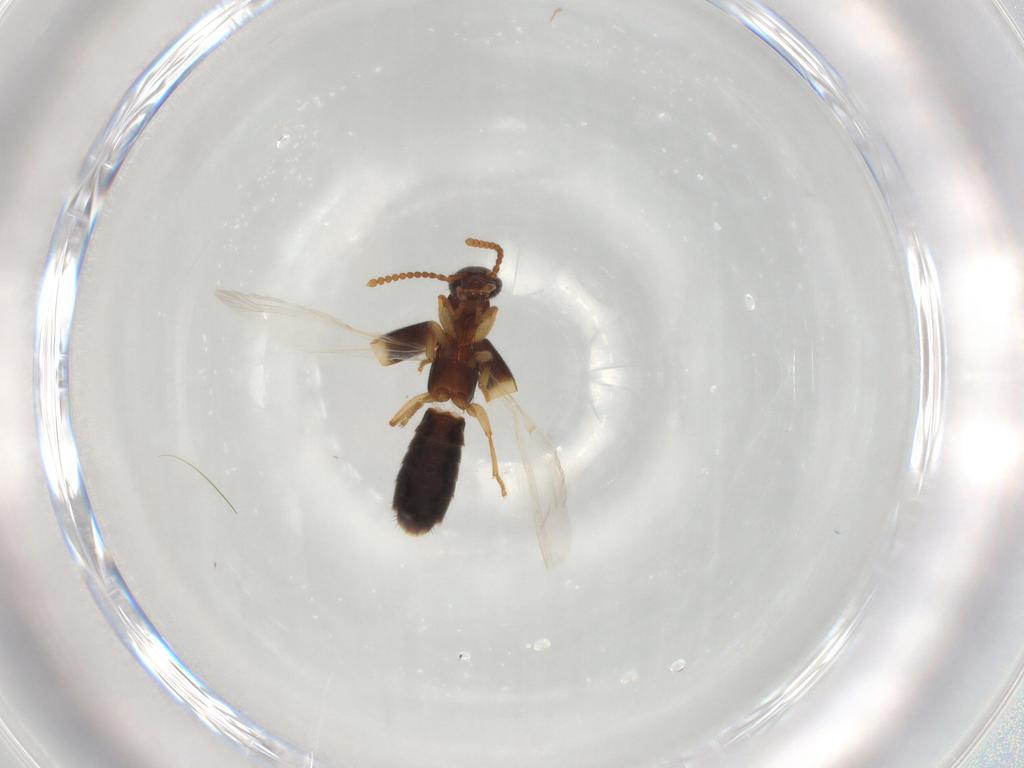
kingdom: Animalia
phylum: Arthropoda
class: Insecta
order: Coleoptera
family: Staphylinidae
